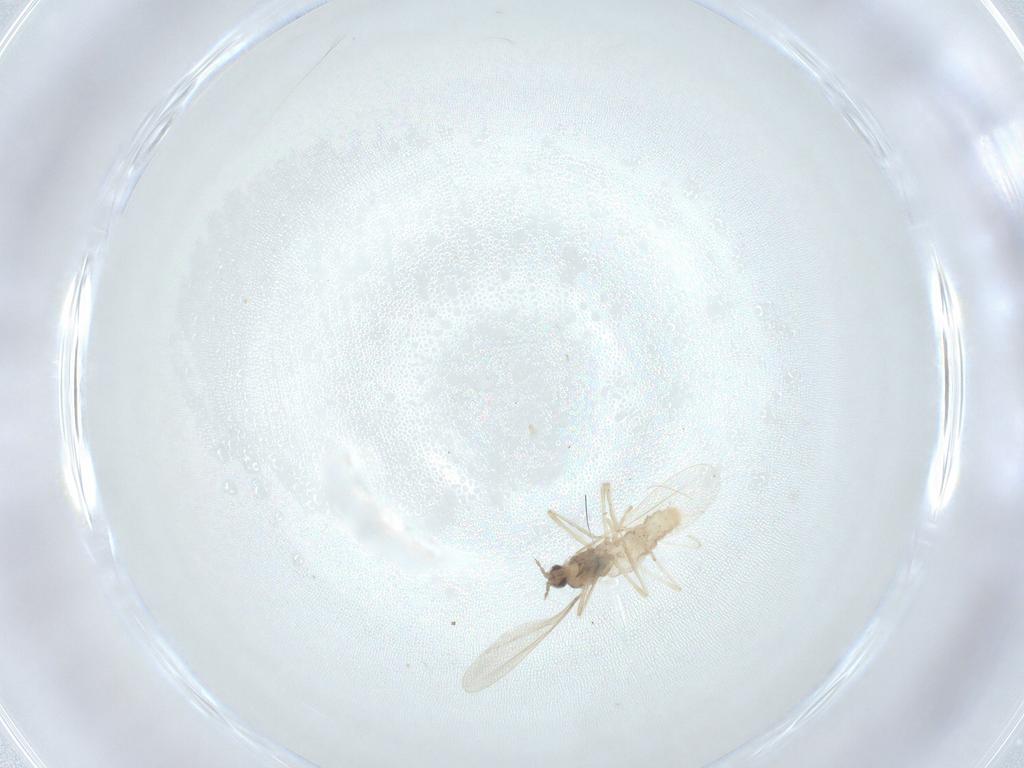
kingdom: Animalia
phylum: Arthropoda
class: Insecta
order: Diptera
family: Cecidomyiidae
